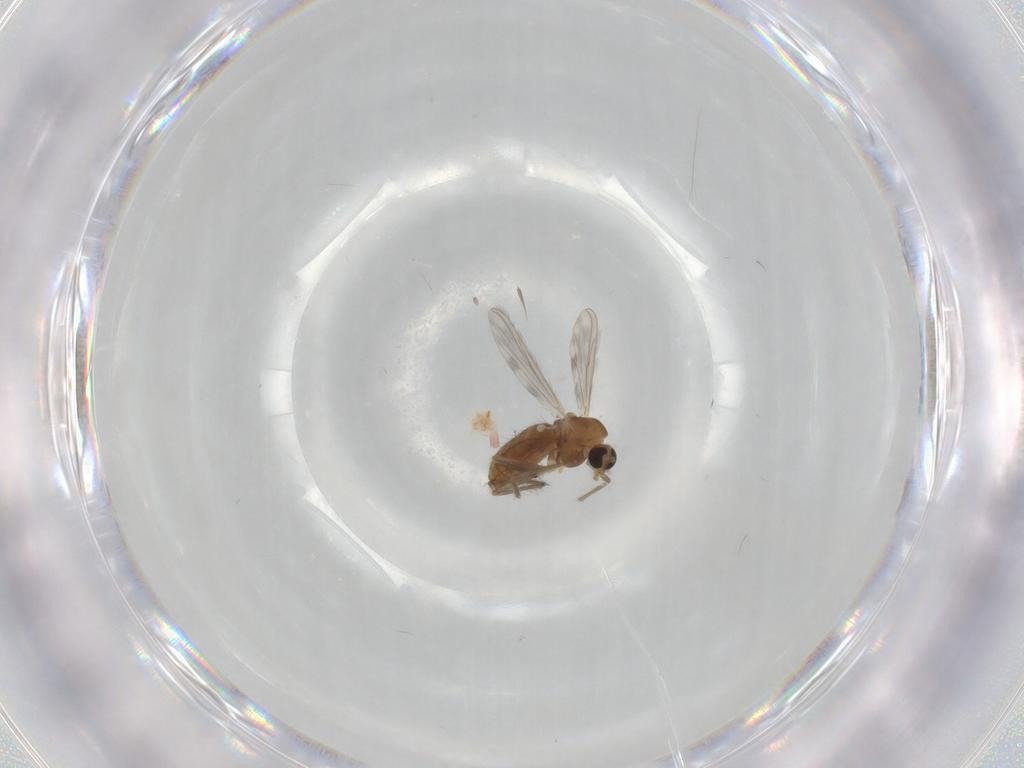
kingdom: Animalia
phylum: Arthropoda
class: Insecta
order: Diptera
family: Chironomidae
